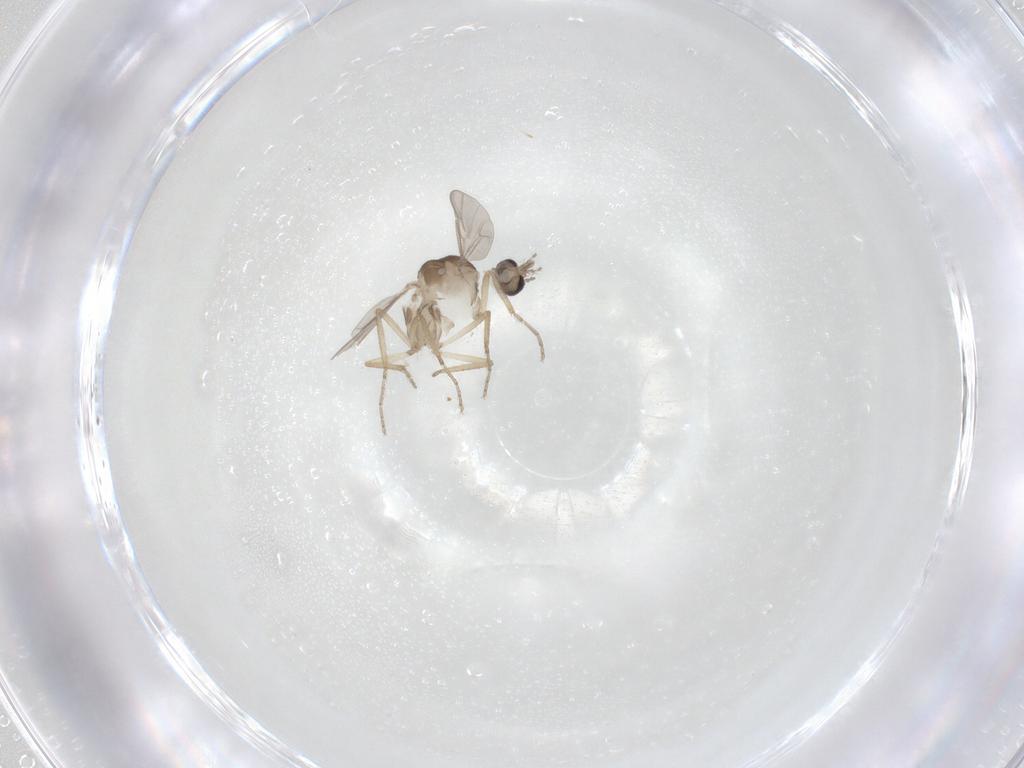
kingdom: Animalia
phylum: Arthropoda
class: Insecta
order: Diptera
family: Ceratopogonidae
